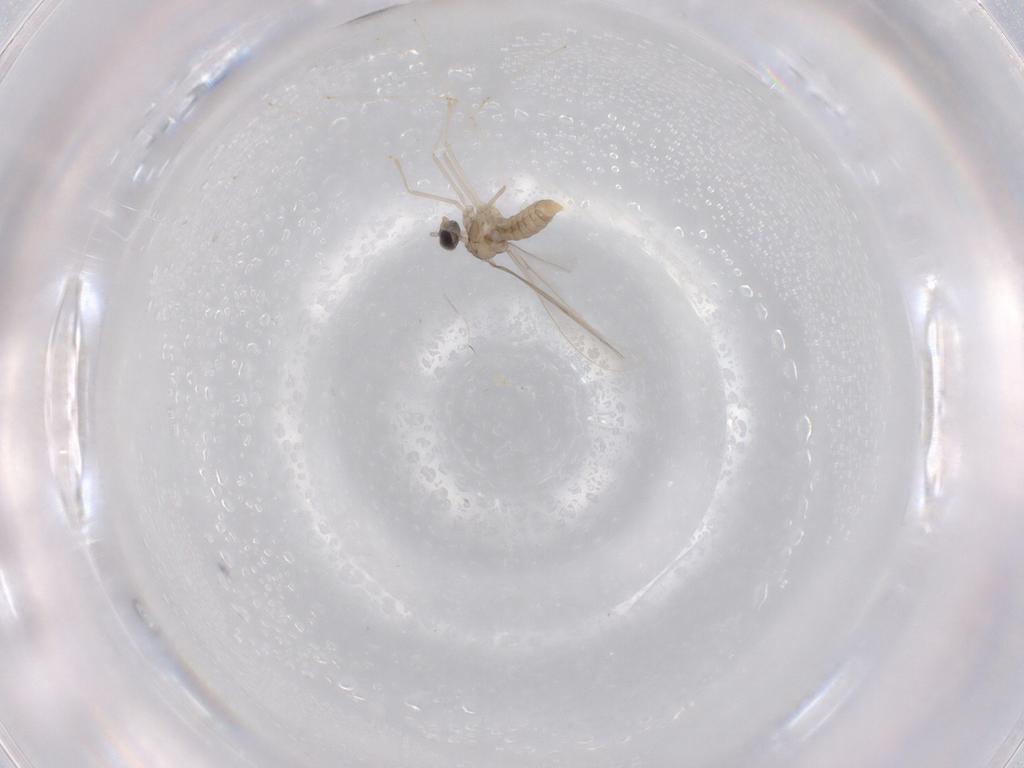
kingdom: Animalia
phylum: Arthropoda
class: Insecta
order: Diptera
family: Cecidomyiidae
